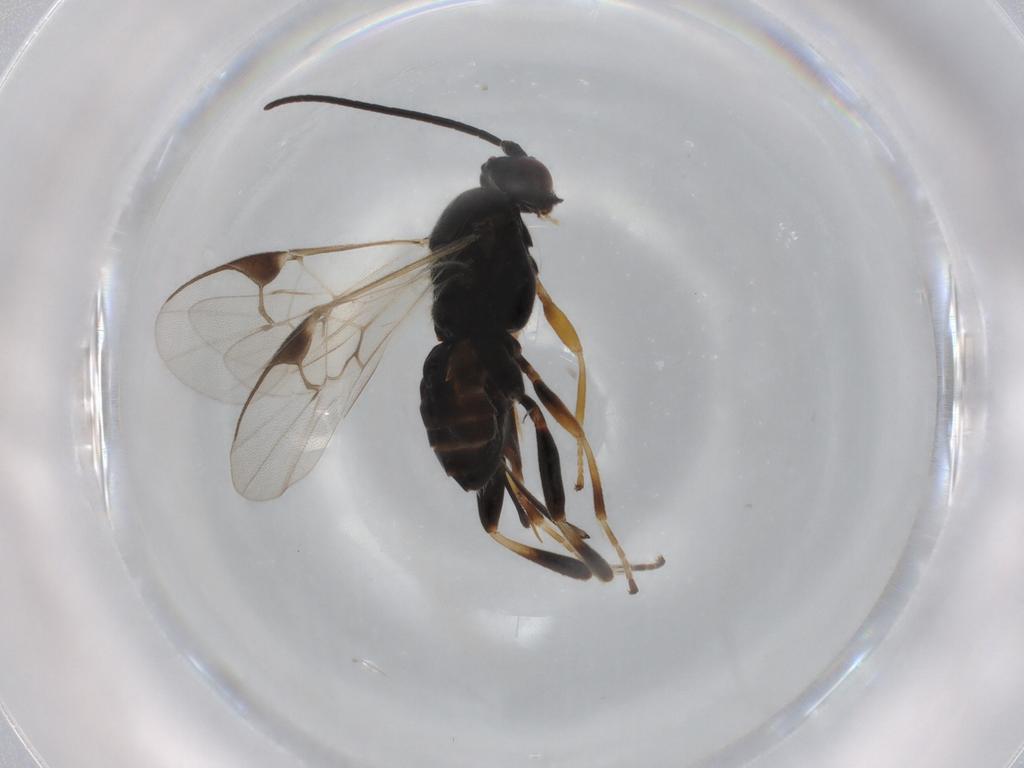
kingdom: Animalia
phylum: Arthropoda
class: Insecta
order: Hymenoptera
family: Braconidae
